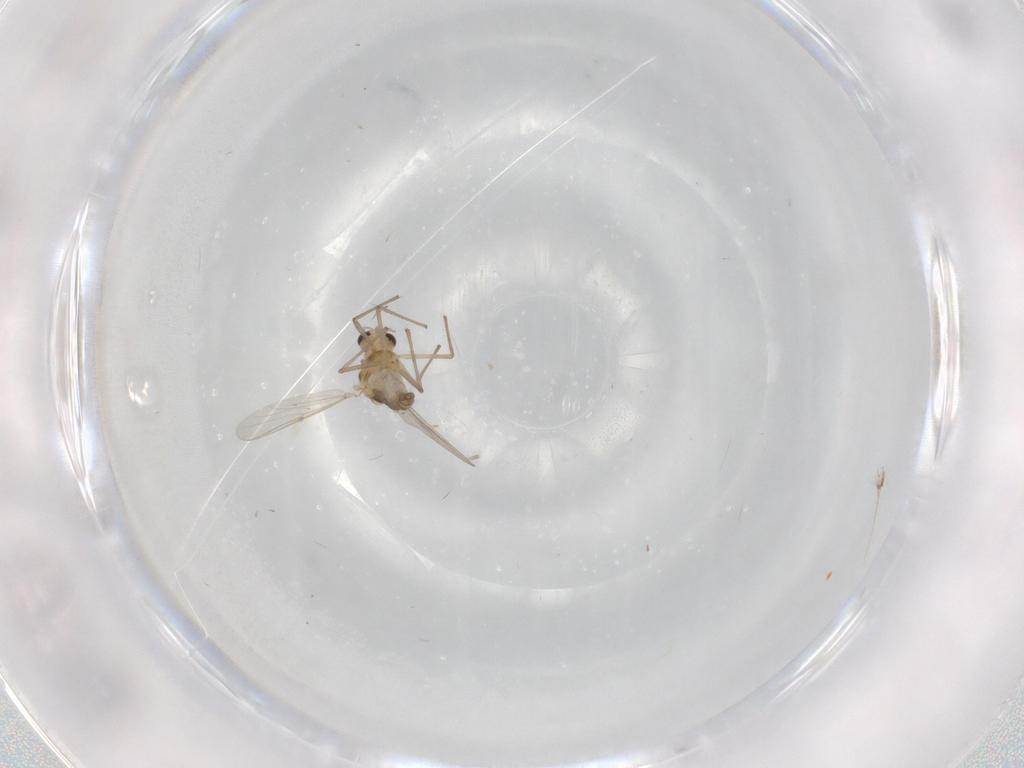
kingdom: Animalia
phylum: Arthropoda
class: Insecta
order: Diptera
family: Chironomidae
